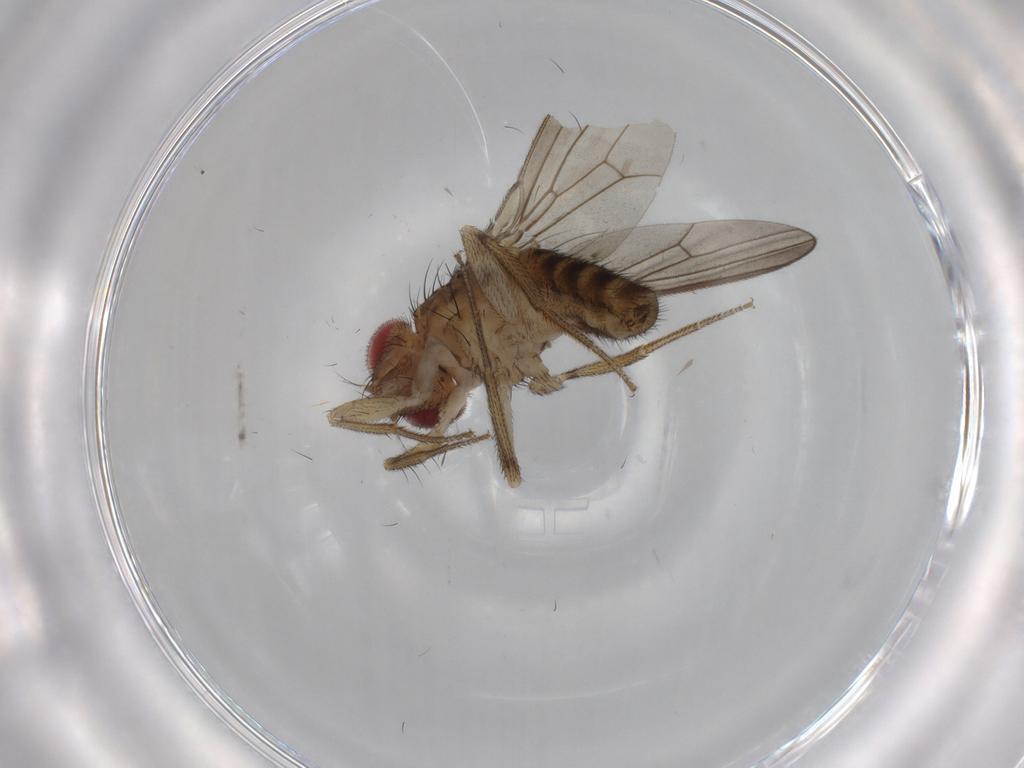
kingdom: Animalia
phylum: Arthropoda
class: Insecta
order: Diptera
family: Drosophilidae
